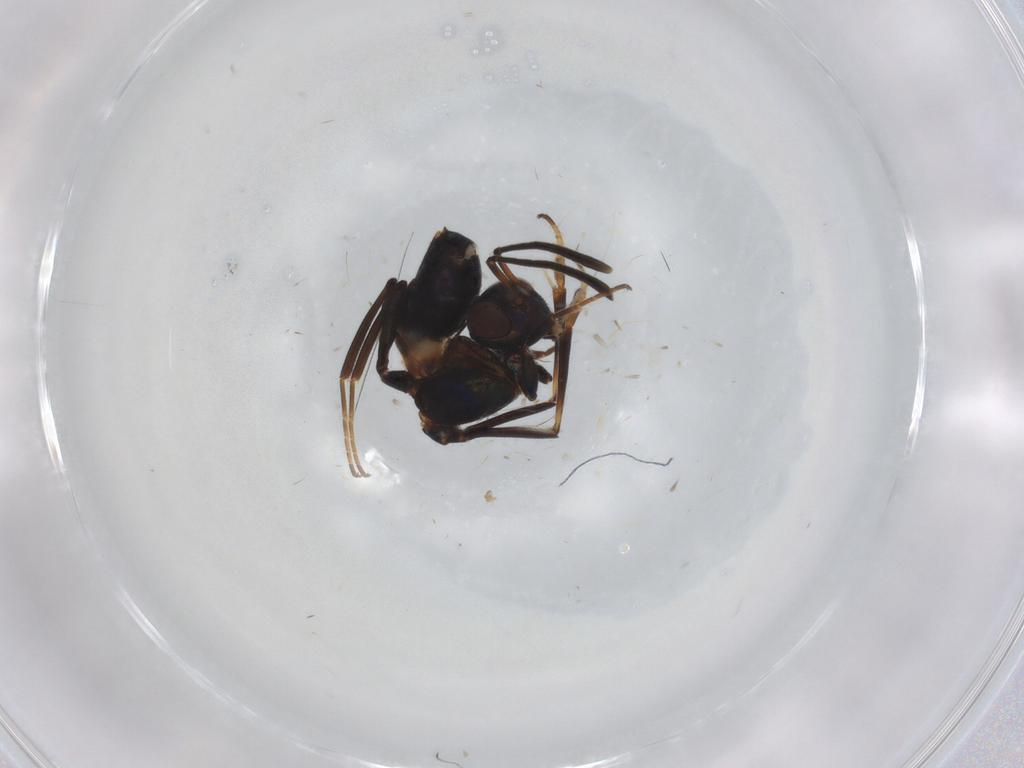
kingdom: Animalia
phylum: Arthropoda
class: Insecta
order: Hymenoptera
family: Eupelmidae
